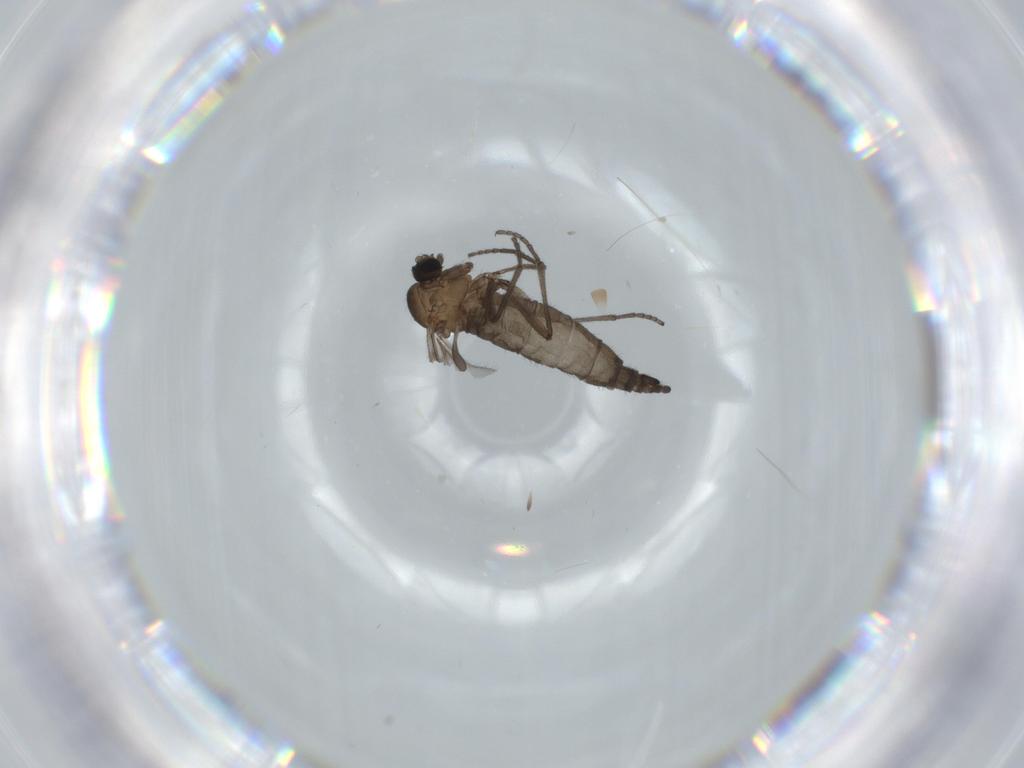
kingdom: Animalia
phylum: Arthropoda
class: Insecta
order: Diptera
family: Sciaridae
